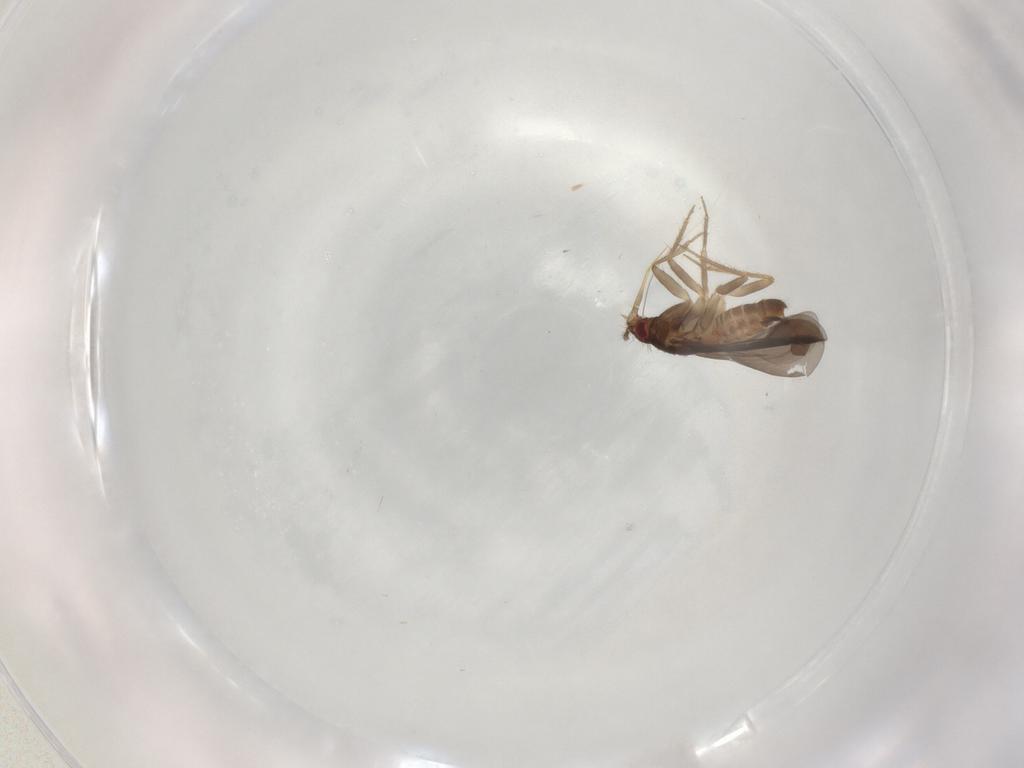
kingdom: Animalia
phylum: Arthropoda
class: Insecta
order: Hemiptera
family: Ceratocombidae
